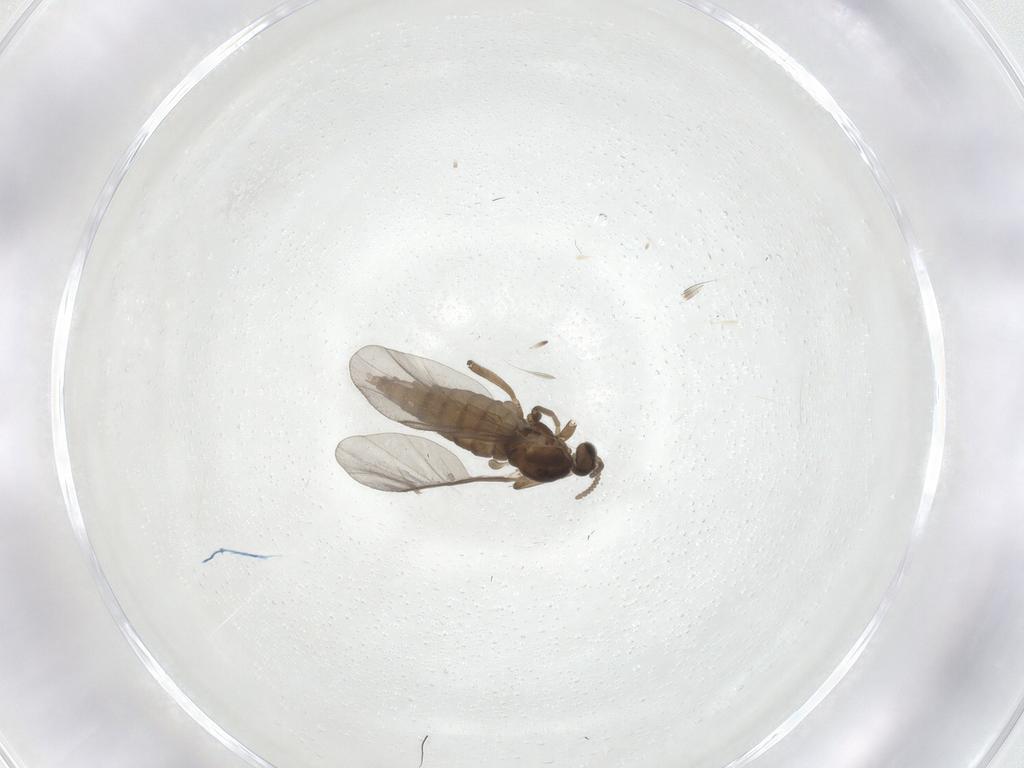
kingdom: Animalia
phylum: Arthropoda
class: Insecta
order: Diptera
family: Cecidomyiidae
